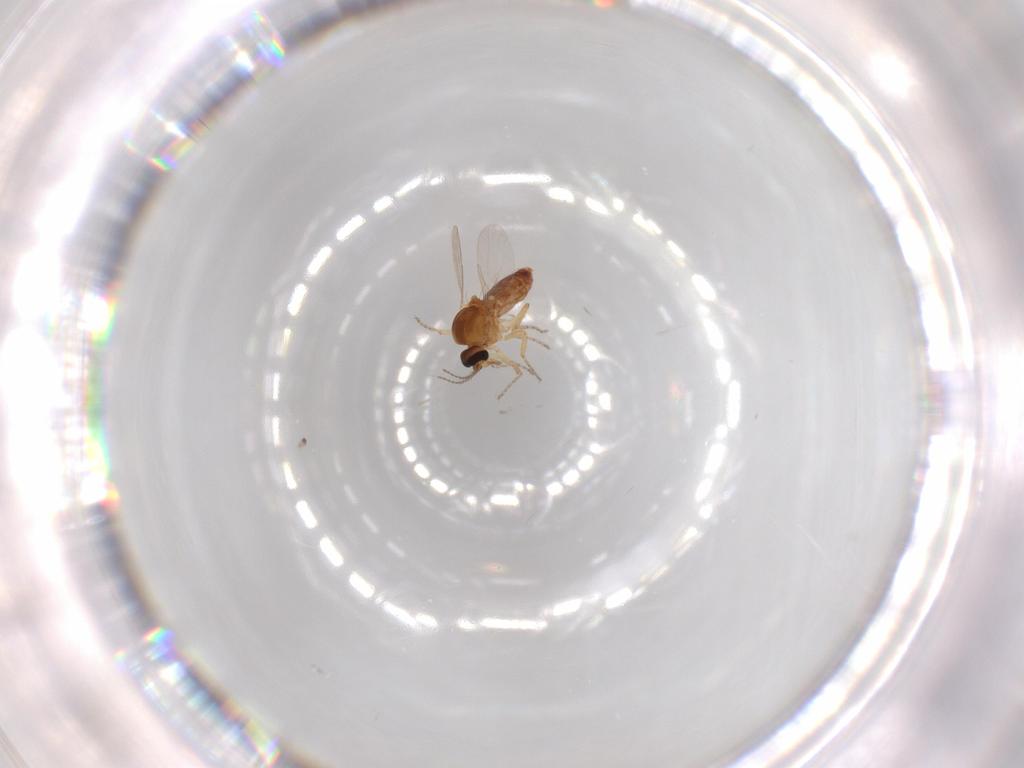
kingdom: Animalia
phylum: Arthropoda
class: Insecta
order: Diptera
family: Ceratopogonidae
